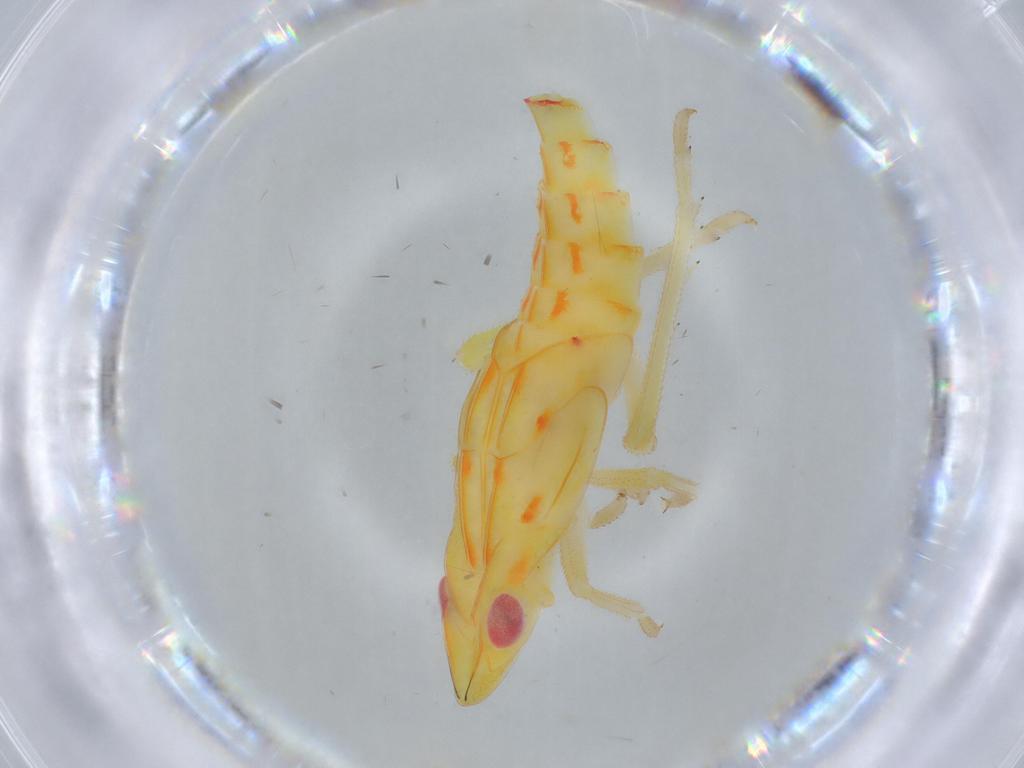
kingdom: Animalia
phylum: Arthropoda
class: Insecta
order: Hemiptera
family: Tropiduchidae
